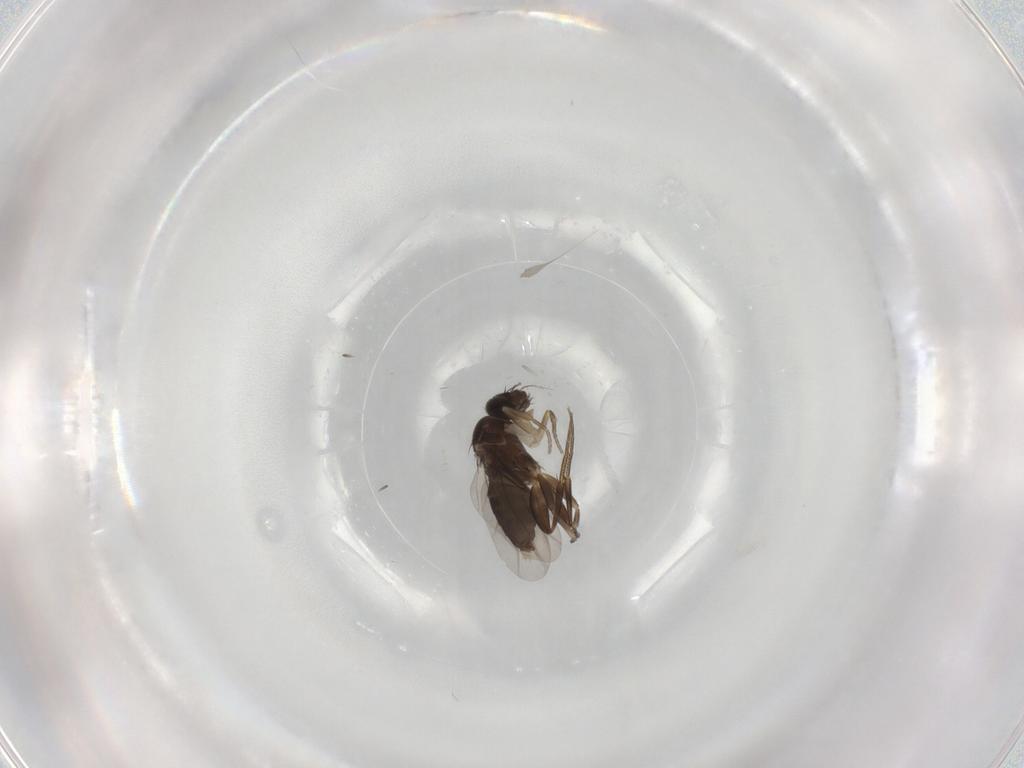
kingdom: Animalia
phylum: Arthropoda
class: Insecta
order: Diptera
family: Phoridae
